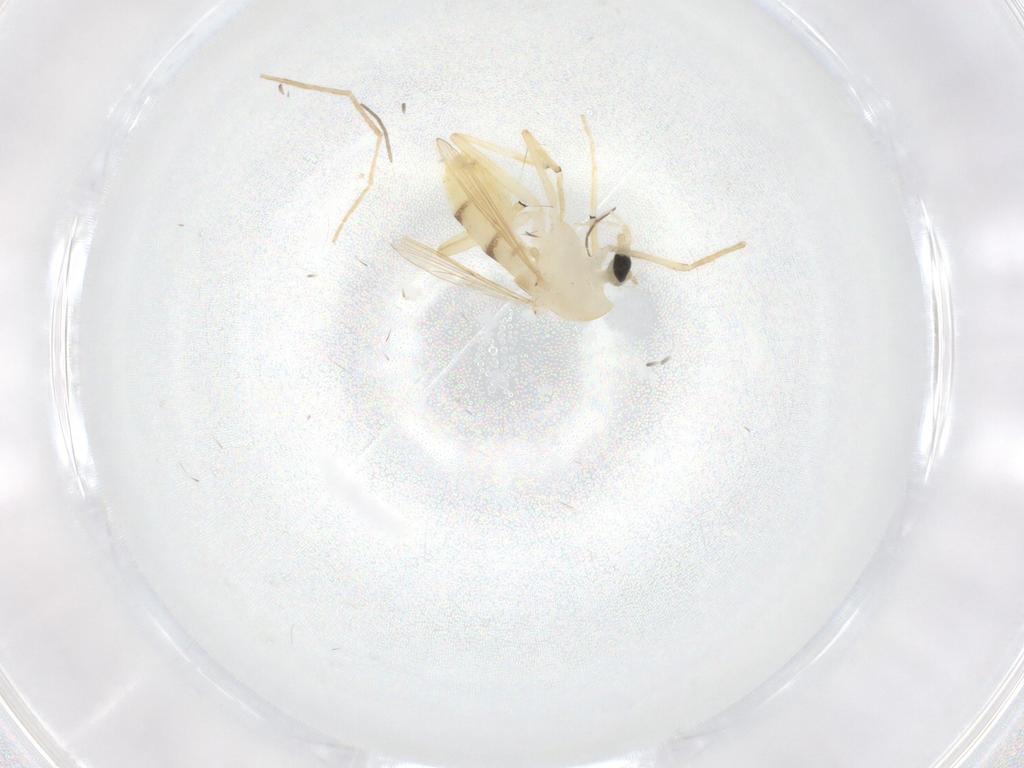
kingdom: Animalia
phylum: Arthropoda
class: Insecta
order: Diptera
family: Chironomidae
